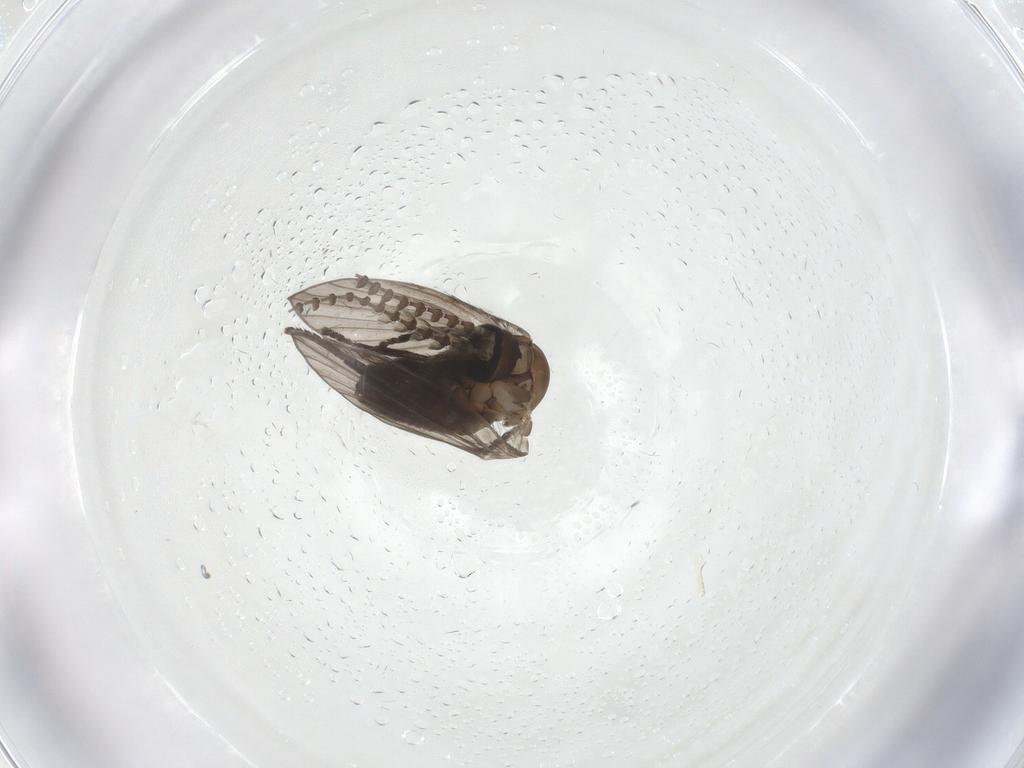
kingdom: Animalia
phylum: Arthropoda
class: Insecta
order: Diptera
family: Psychodidae
